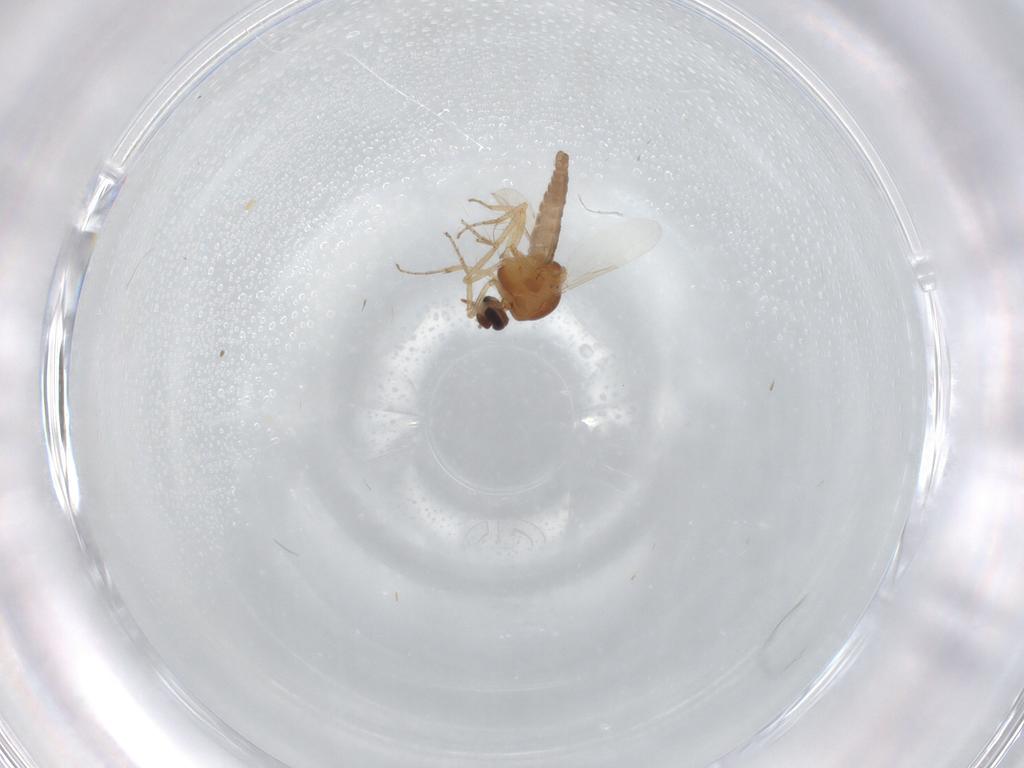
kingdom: Animalia
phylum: Arthropoda
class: Insecta
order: Diptera
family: Ceratopogonidae
